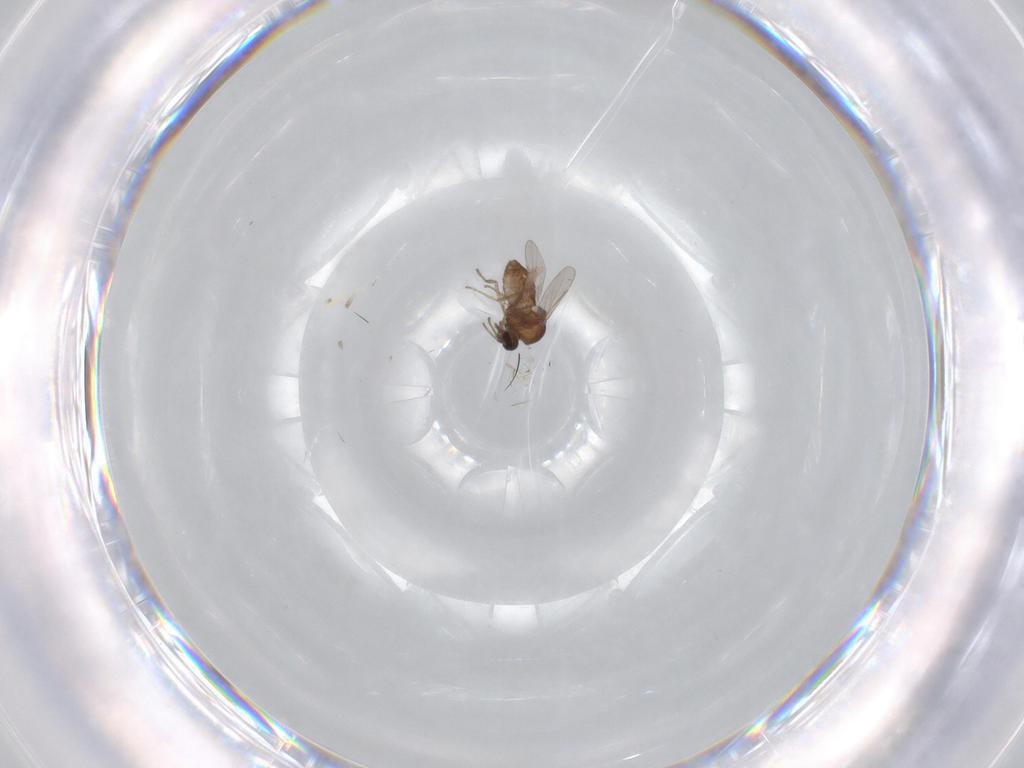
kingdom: Animalia
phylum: Arthropoda
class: Insecta
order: Diptera
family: Ceratopogonidae
